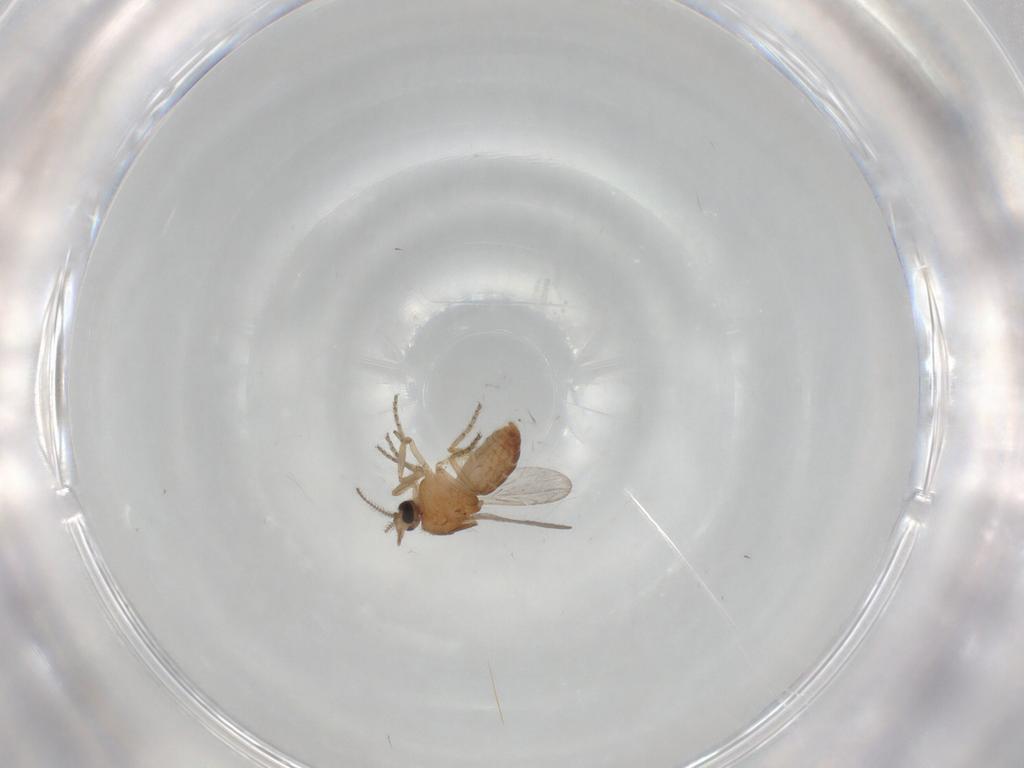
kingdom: Animalia
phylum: Arthropoda
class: Insecta
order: Diptera
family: Ceratopogonidae
